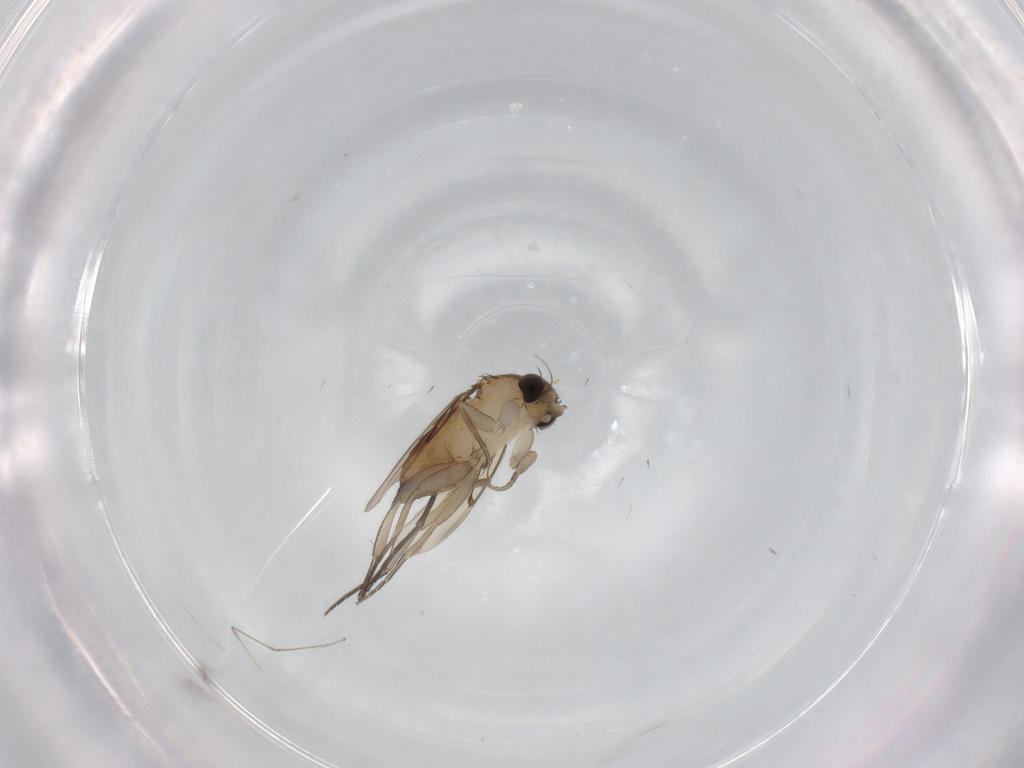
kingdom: Animalia
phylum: Arthropoda
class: Insecta
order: Diptera
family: Sciaridae
